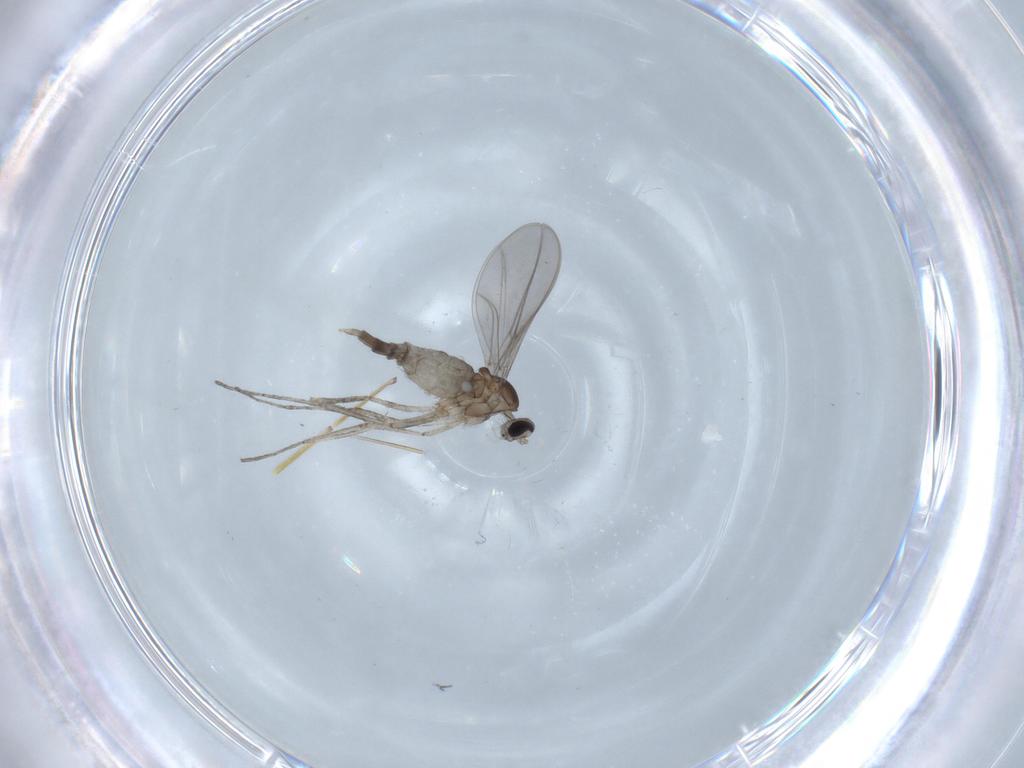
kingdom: Animalia
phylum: Arthropoda
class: Insecta
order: Diptera
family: Cecidomyiidae
